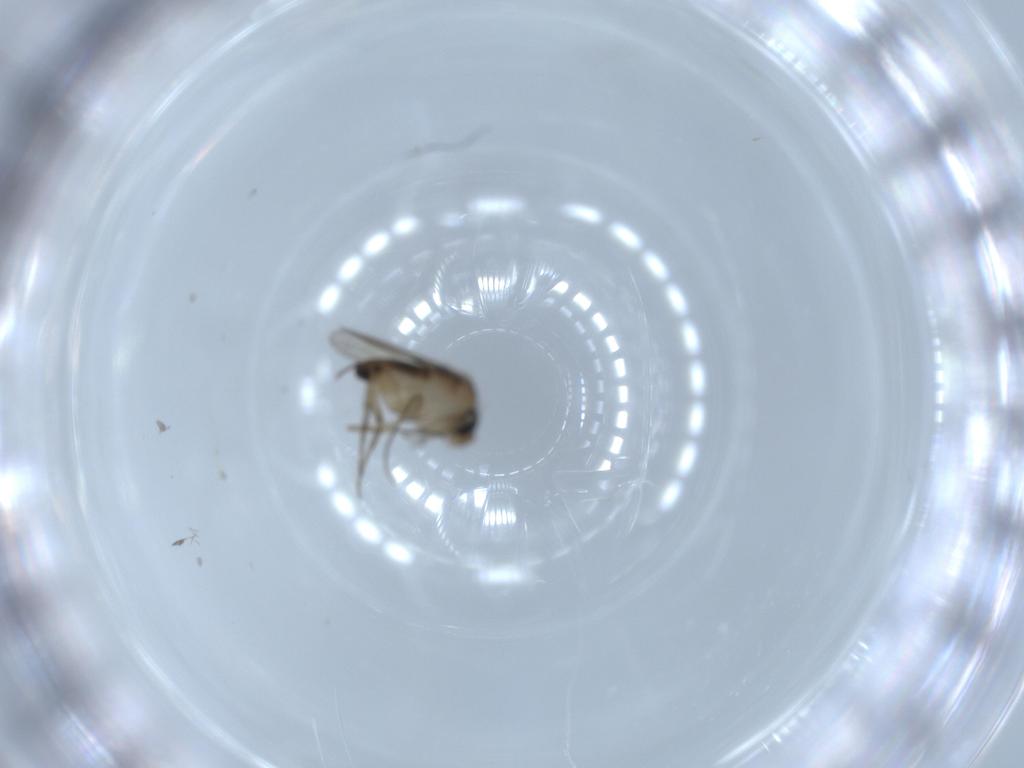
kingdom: Animalia
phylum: Arthropoda
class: Insecta
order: Diptera
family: Phoridae
